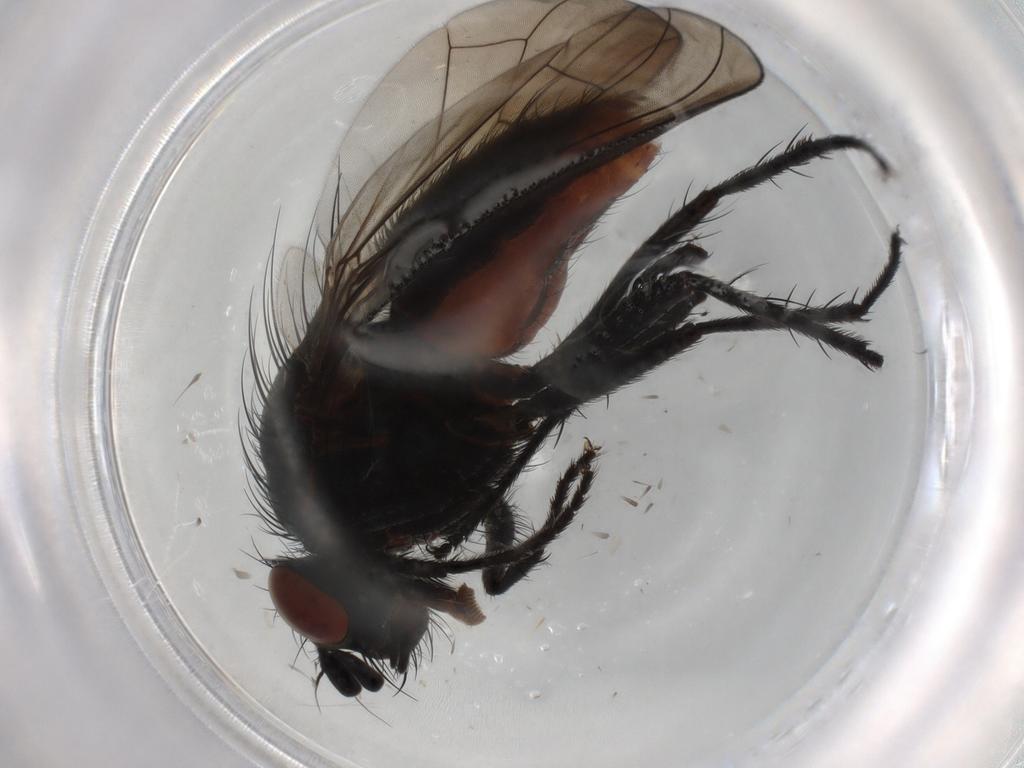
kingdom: Animalia
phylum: Arthropoda
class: Insecta
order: Diptera
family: Anthomyiidae
